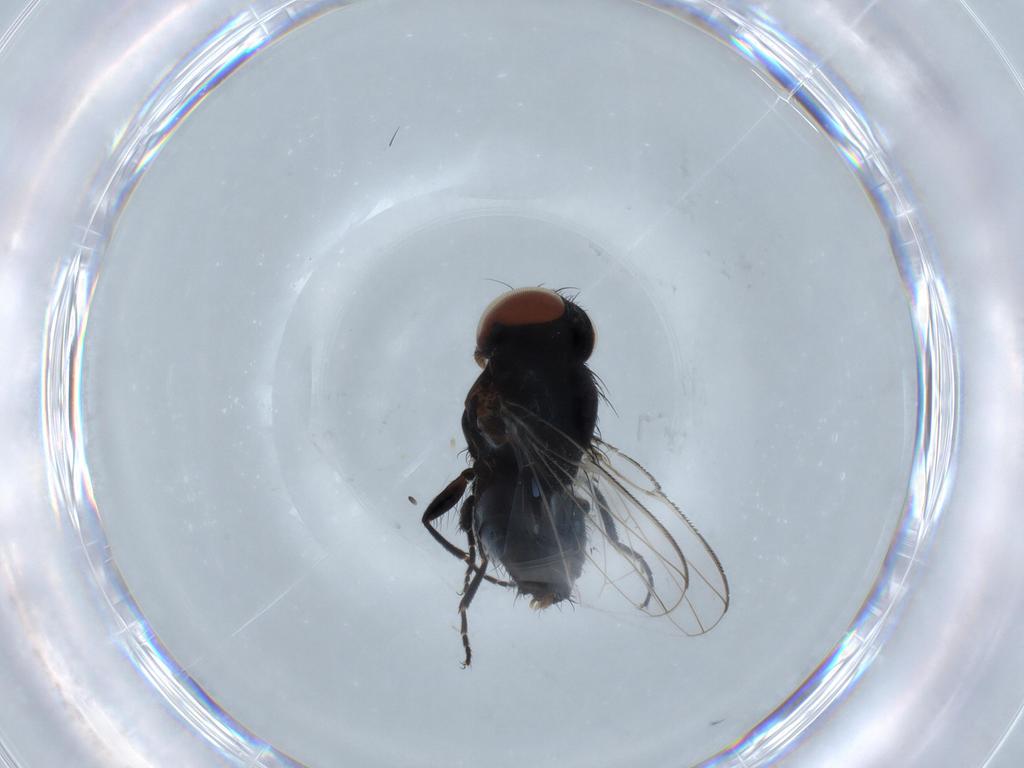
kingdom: Animalia
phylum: Arthropoda
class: Insecta
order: Diptera
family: Milichiidae
